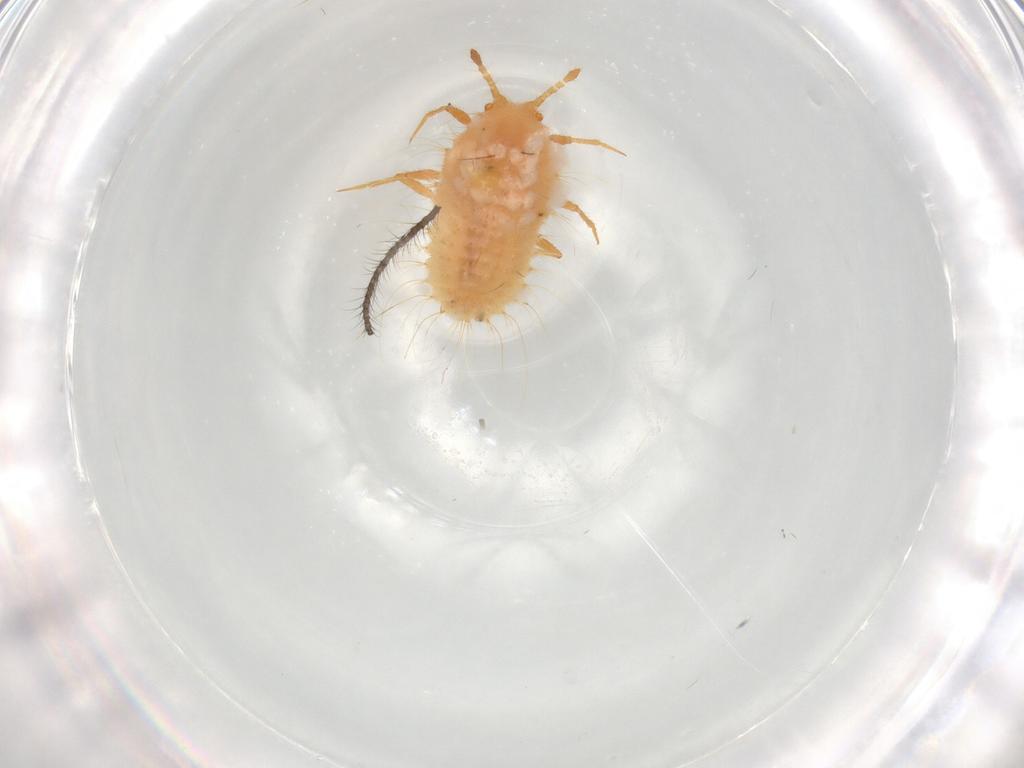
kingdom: Animalia
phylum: Arthropoda
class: Insecta
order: Hemiptera
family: Coccoidea_incertae_sedis
